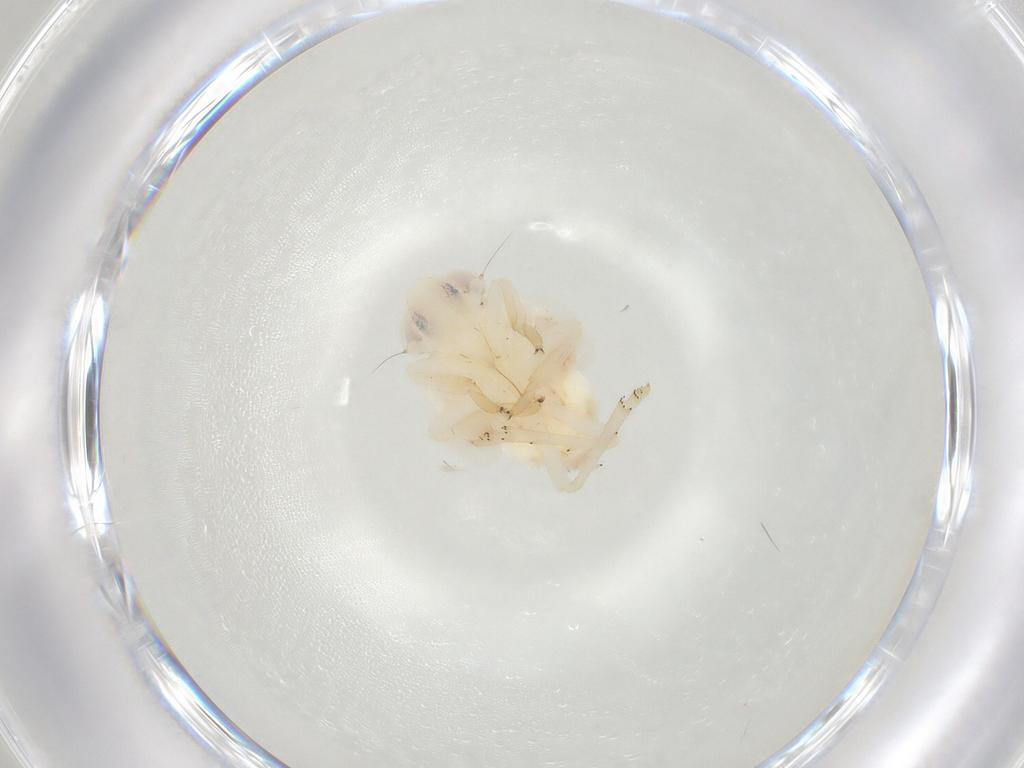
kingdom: Animalia
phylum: Arthropoda
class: Insecta
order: Hemiptera
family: Nogodinidae
